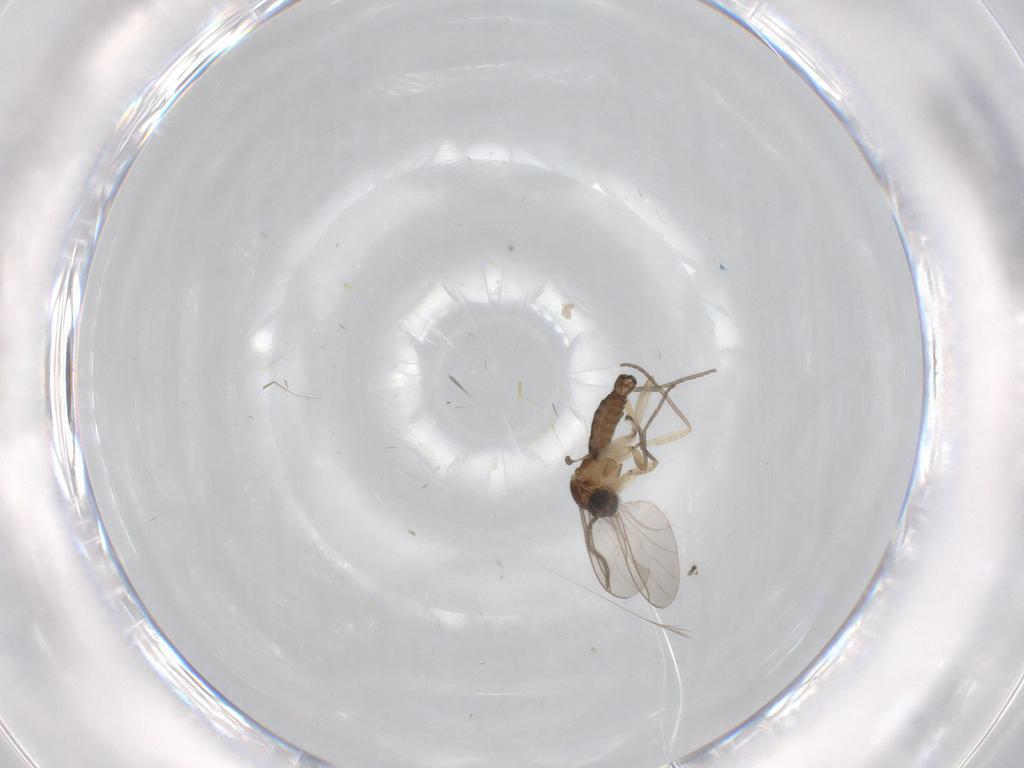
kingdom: Animalia
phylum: Arthropoda
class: Insecta
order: Diptera
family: Sciaridae
